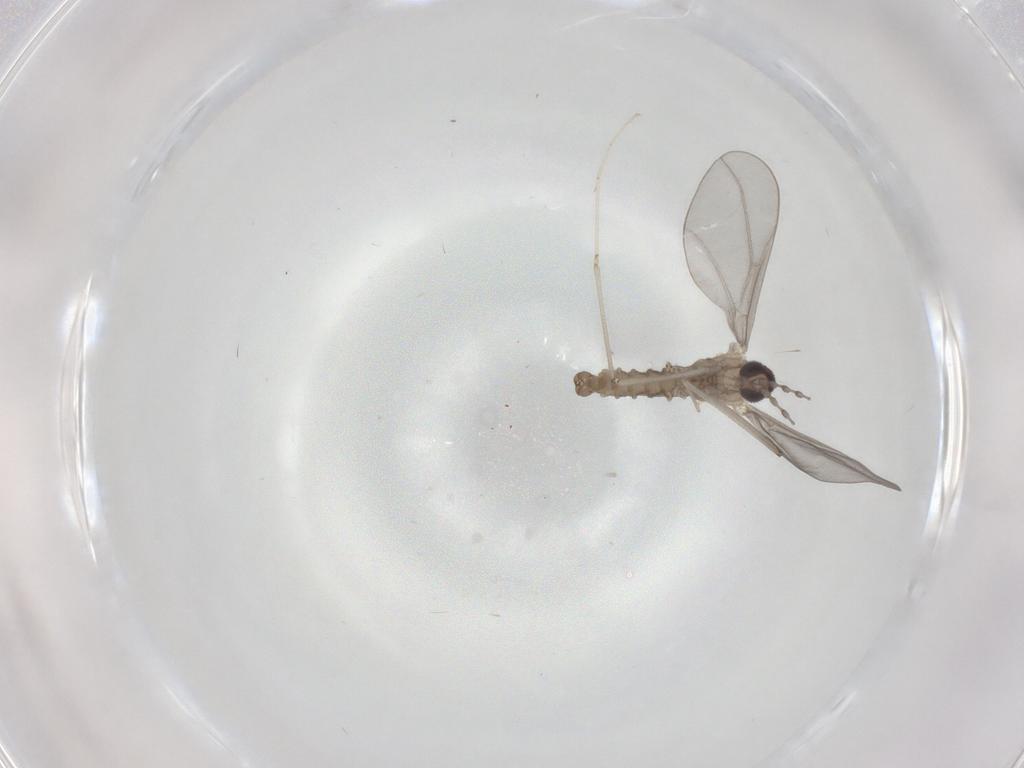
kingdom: Animalia
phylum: Arthropoda
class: Insecta
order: Diptera
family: Cecidomyiidae
